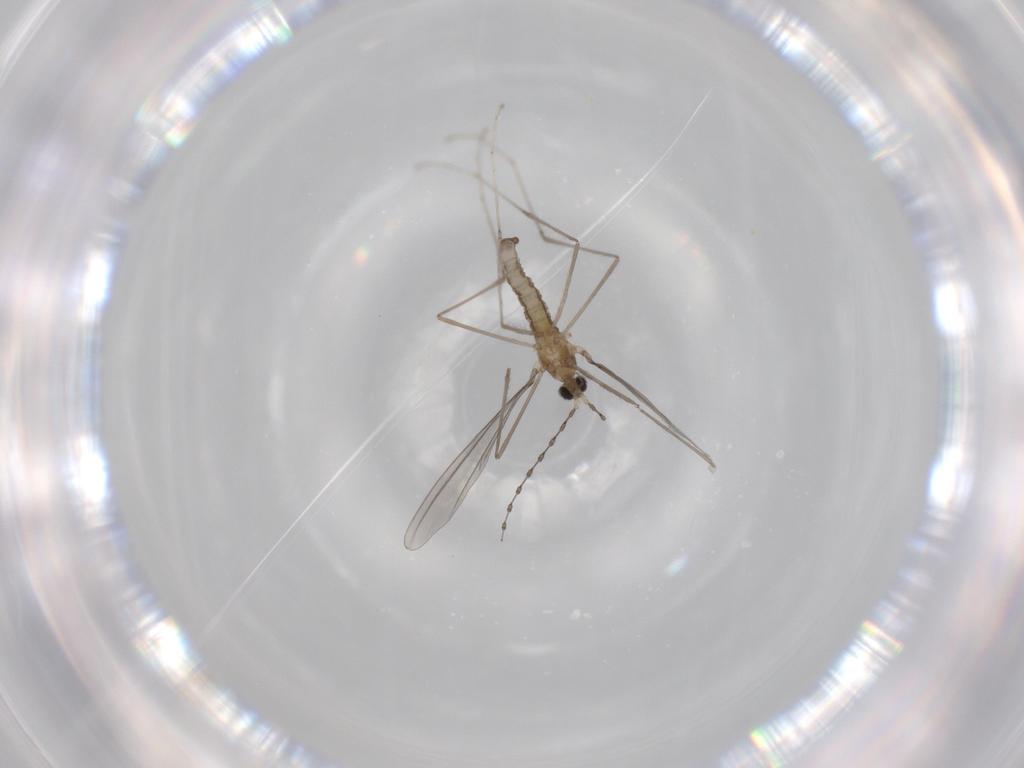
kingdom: Animalia
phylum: Arthropoda
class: Insecta
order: Diptera
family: Cecidomyiidae
